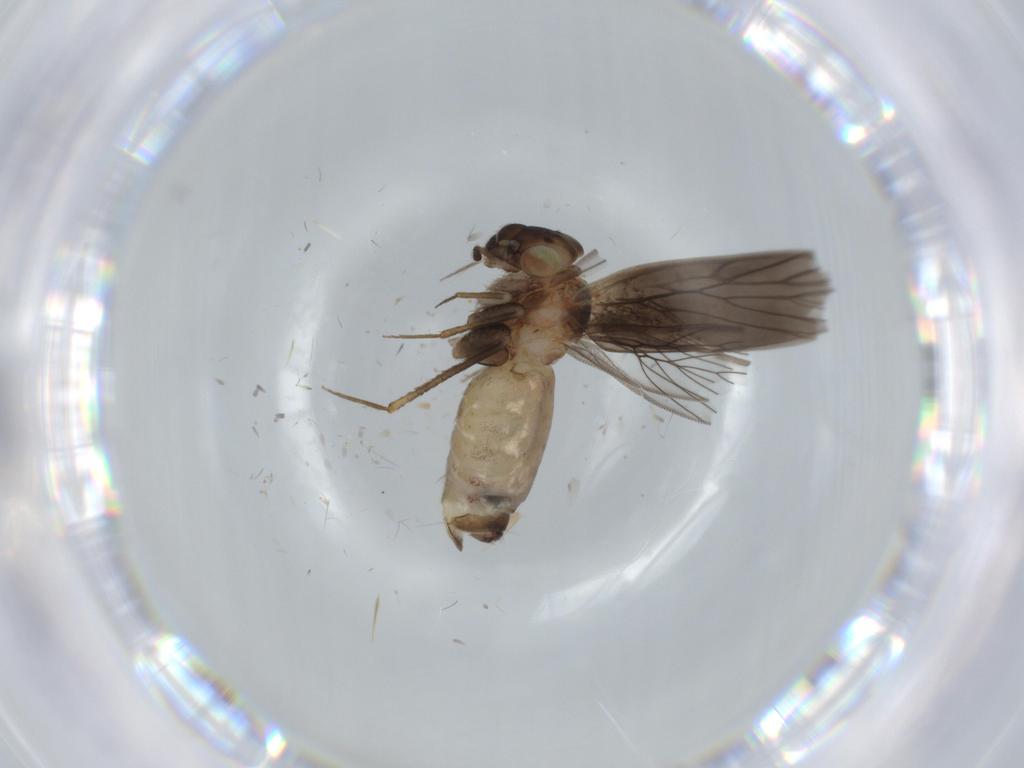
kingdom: Animalia
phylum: Arthropoda
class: Insecta
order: Psocodea
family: Lepidopsocidae
